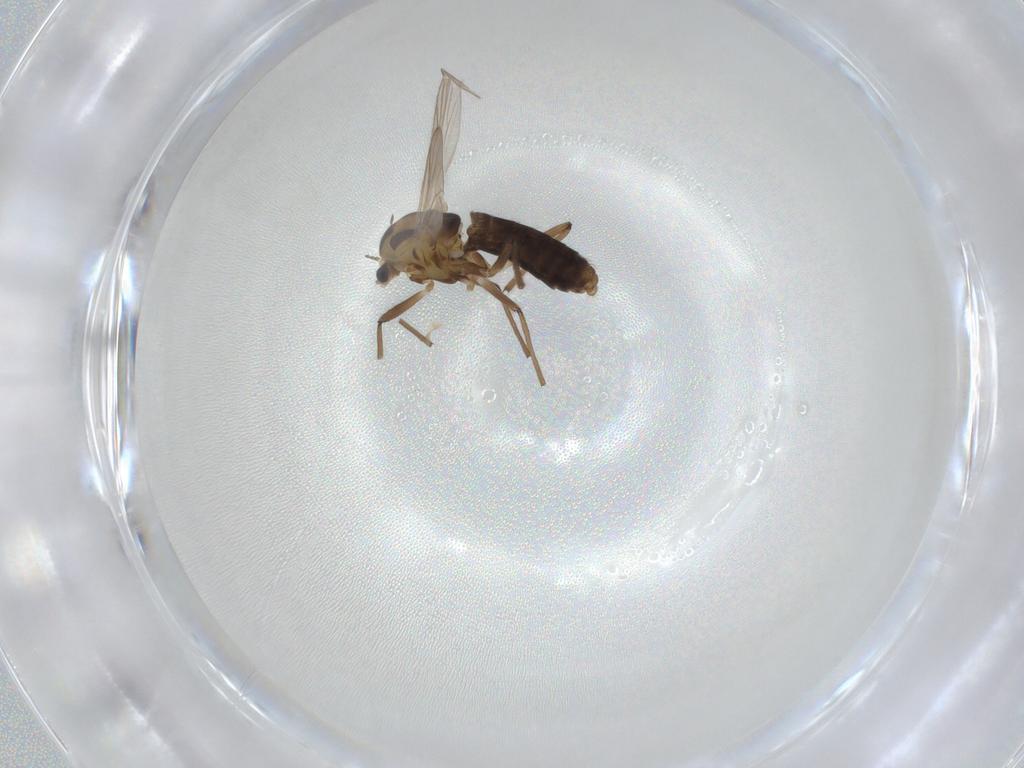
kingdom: Animalia
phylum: Arthropoda
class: Insecta
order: Diptera
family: Chironomidae
